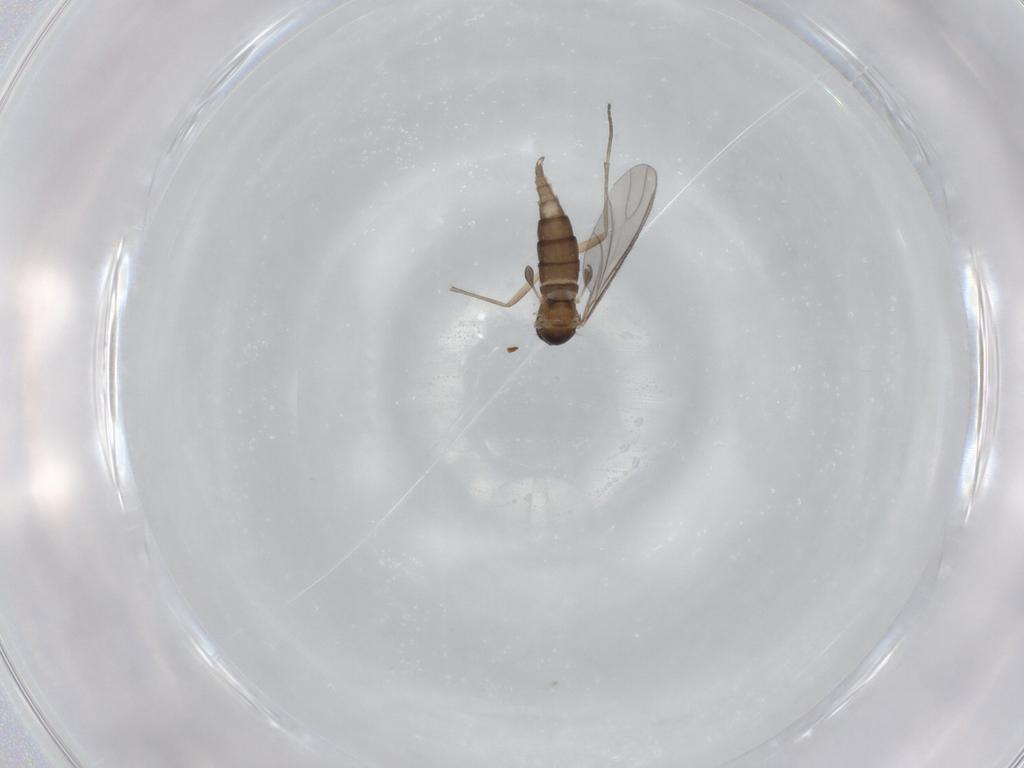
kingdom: Animalia
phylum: Arthropoda
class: Insecta
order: Diptera
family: Sciaridae
